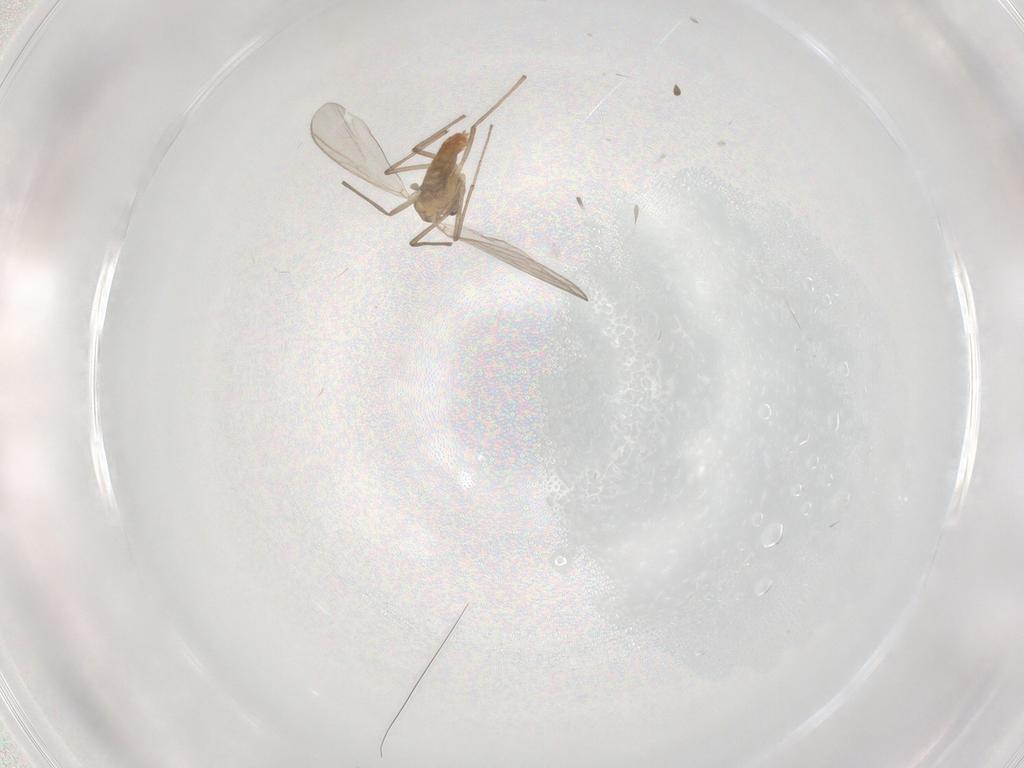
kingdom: Animalia
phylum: Arthropoda
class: Insecta
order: Diptera
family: Chironomidae
